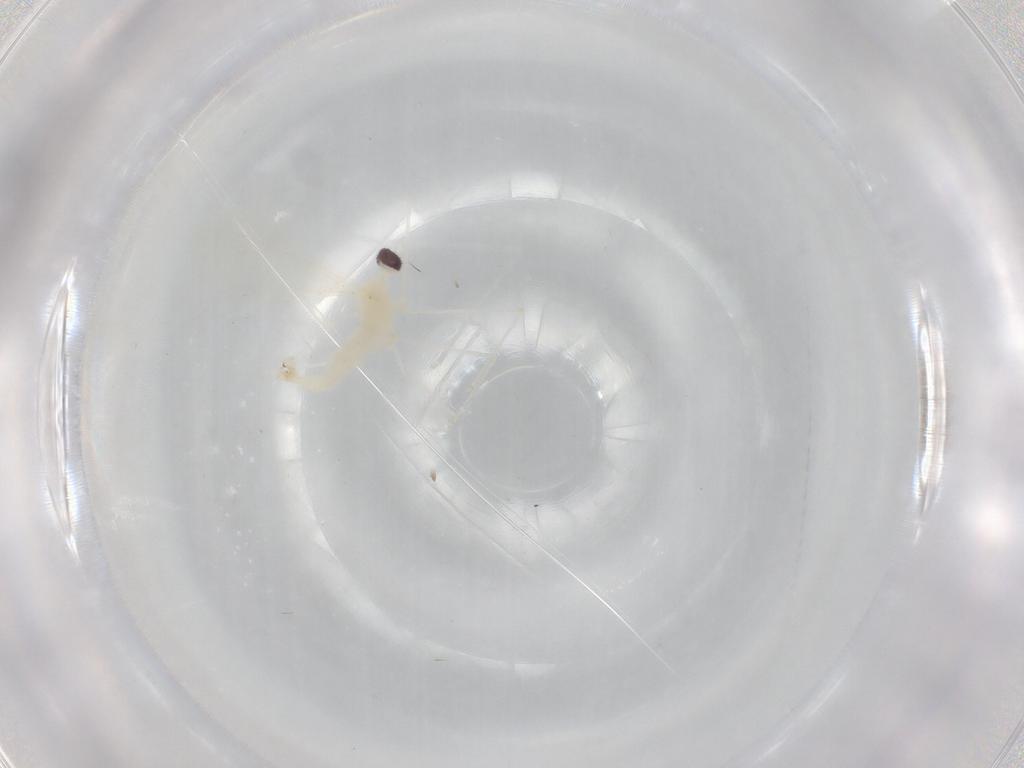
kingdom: Animalia
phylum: Arthropoda
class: Insecta
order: Diptera
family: Cecidomyiidae
